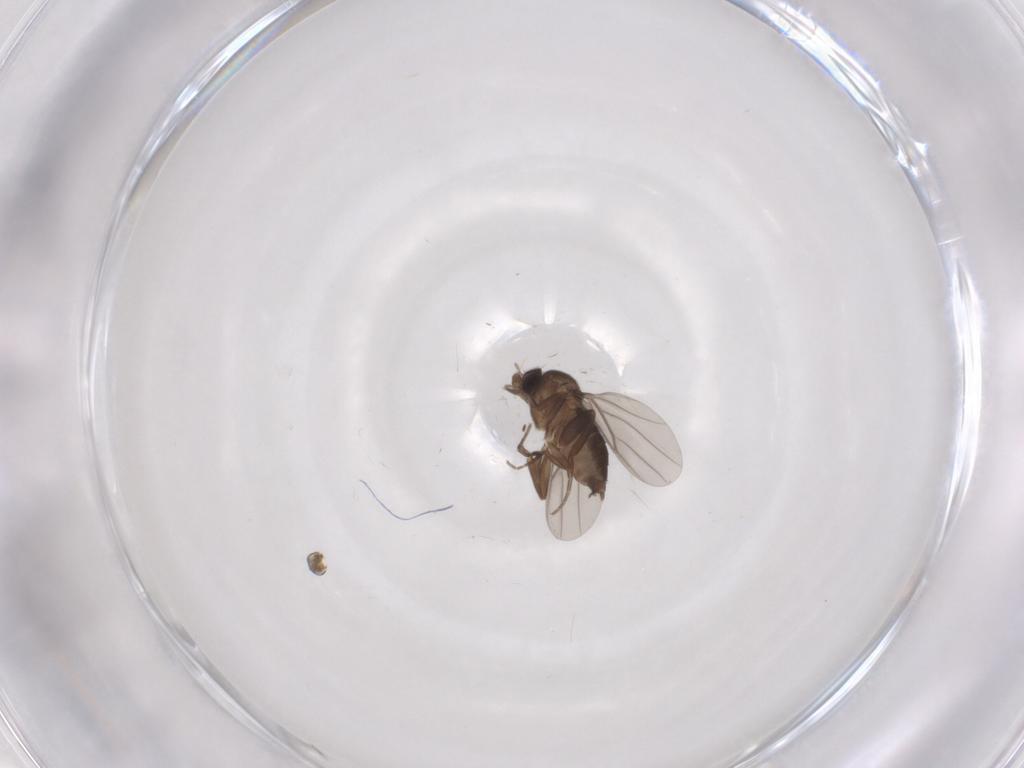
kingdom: Animalia
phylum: Arthropoda
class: Insecta
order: Diptera
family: Phoridae
